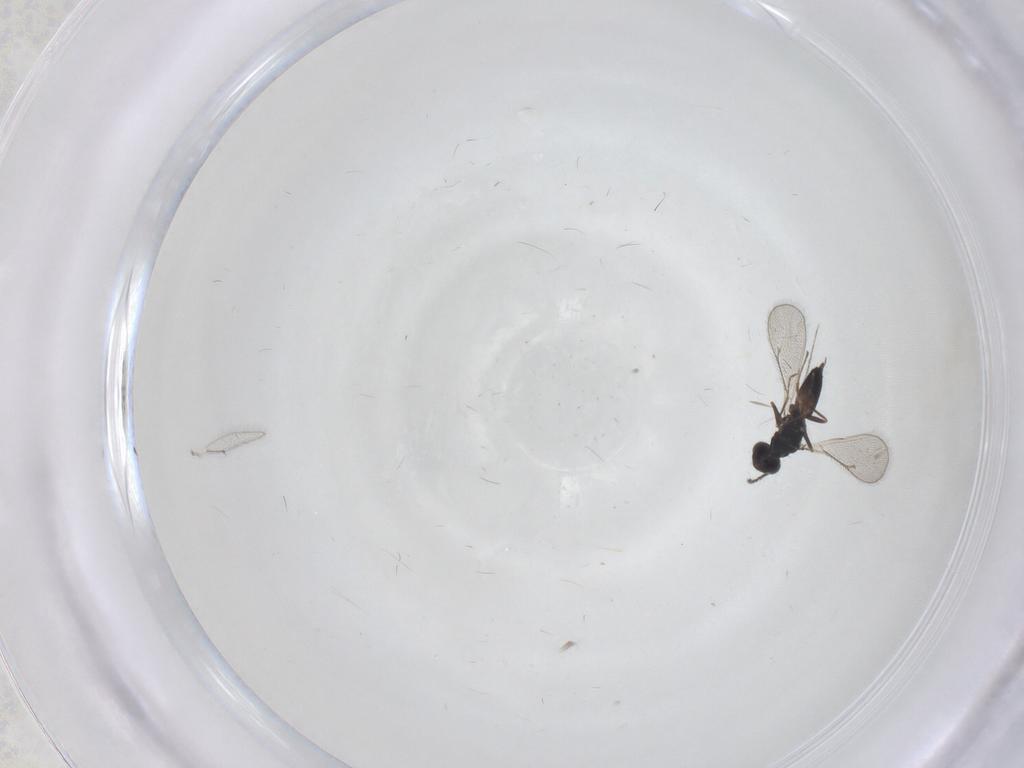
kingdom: Animalia
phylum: Arthropoda
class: Insecta
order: Hymenoptera
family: Eulophidae
